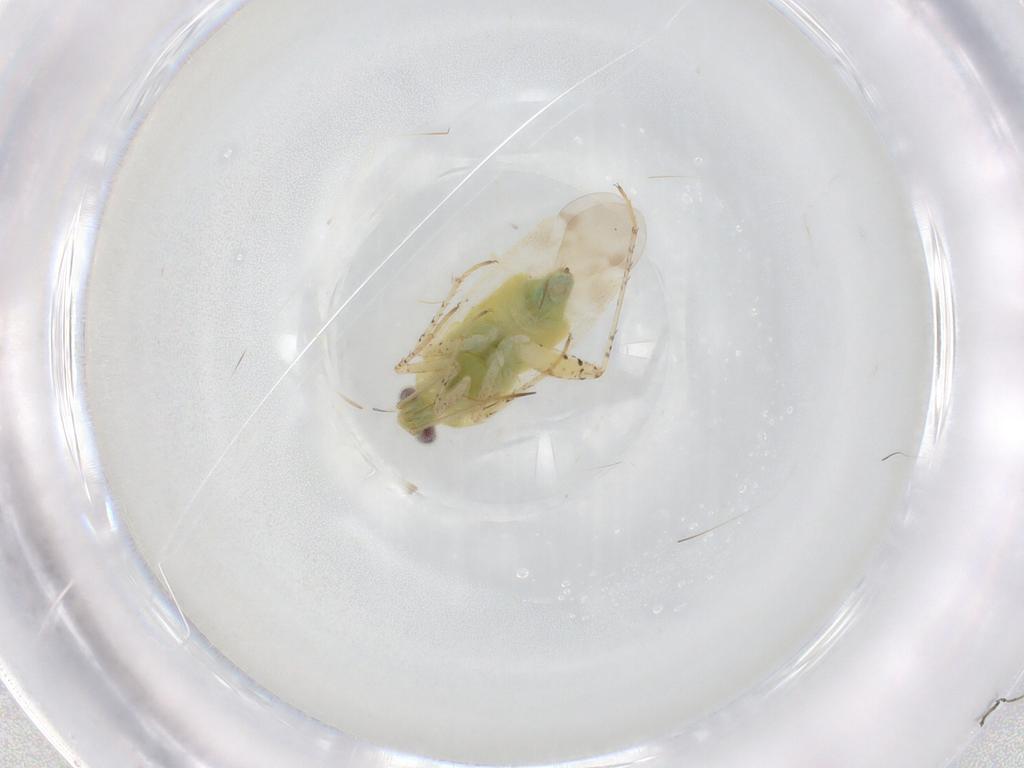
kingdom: Animalia
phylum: Arthropoda
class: Insecta
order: Hemiptera
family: Miridae
